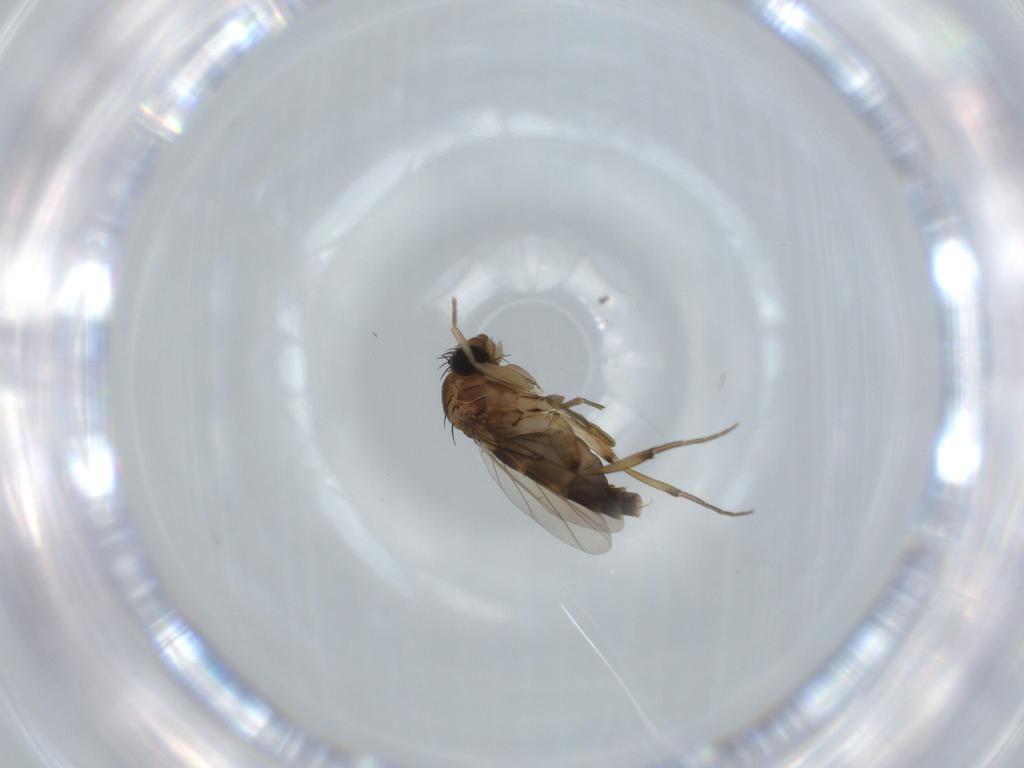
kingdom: Animalia
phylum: Arthropoda
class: Insecta
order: Diptera
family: Phoridae
